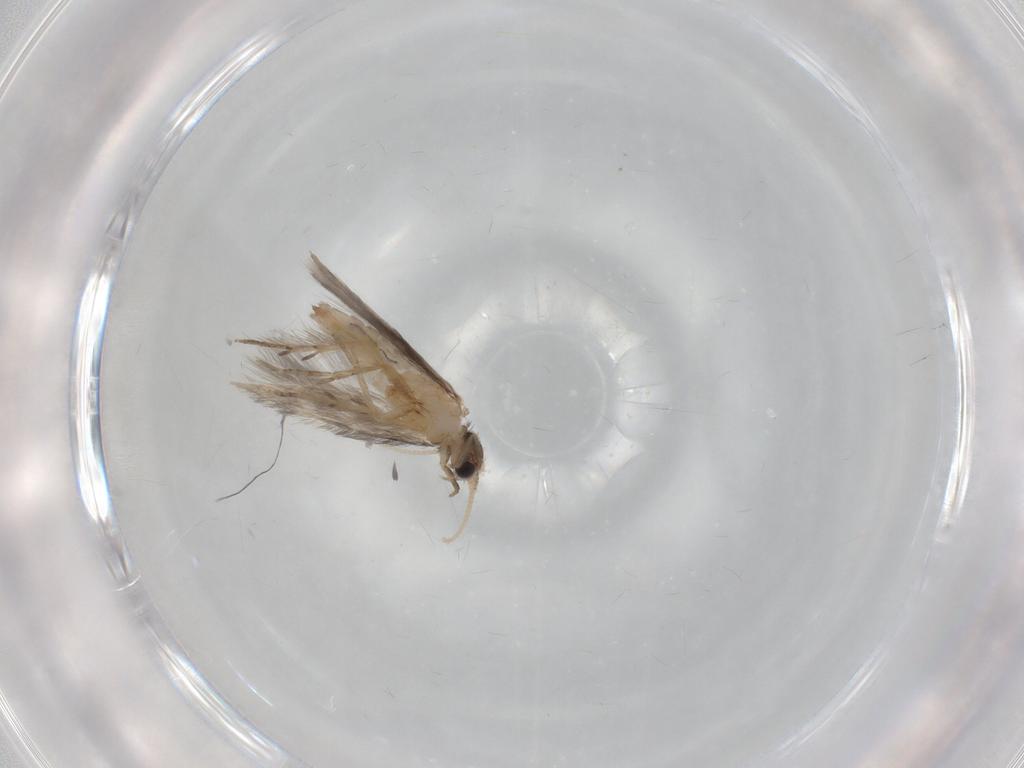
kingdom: Animalia
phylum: Arthropoda
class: Insecta
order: Trichoptera
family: Hydroptilidae
